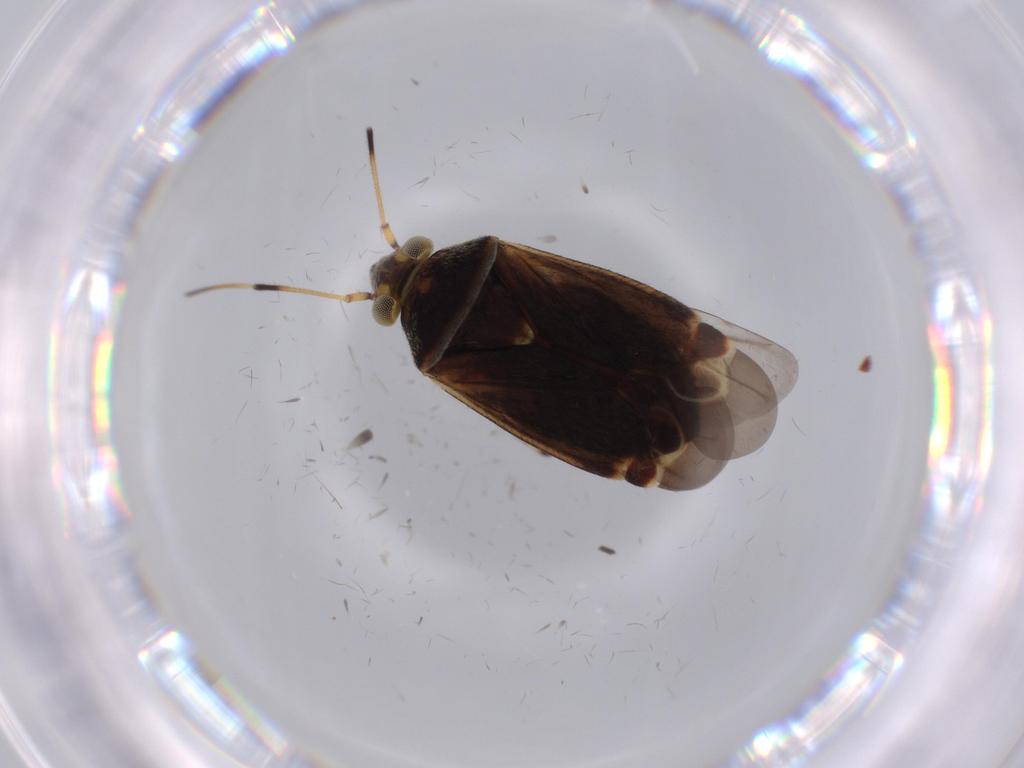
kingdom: Animalia
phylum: Arthropoda
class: Insecta
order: Hemiptera
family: Miridae
